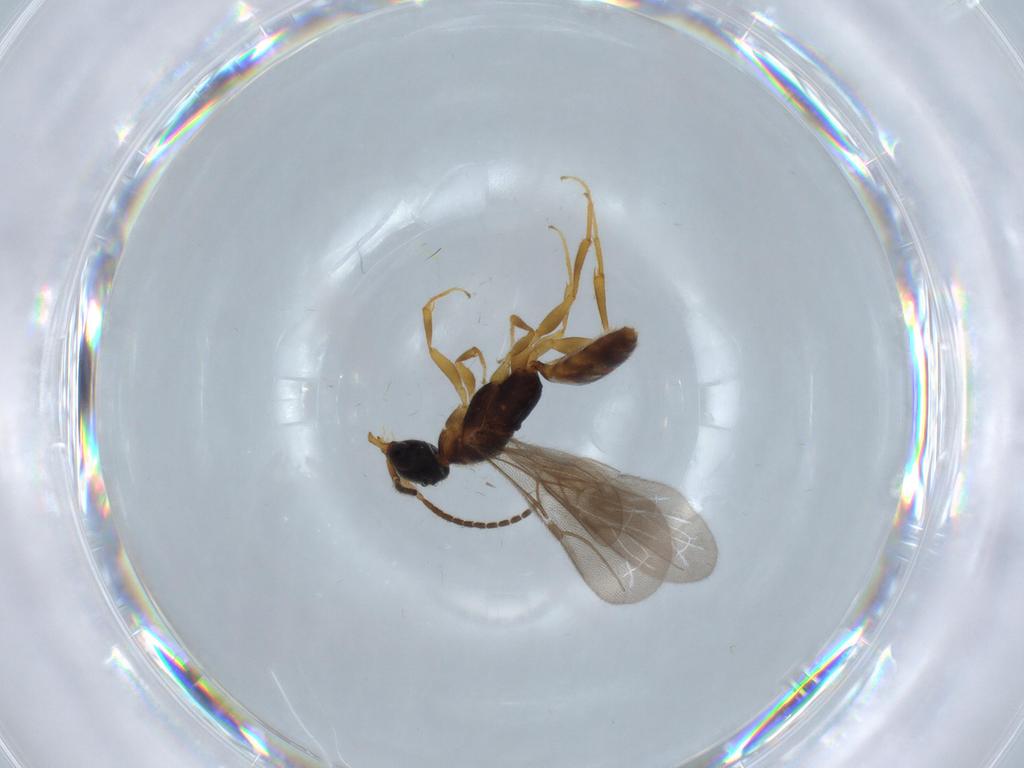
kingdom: Animalia
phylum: Arthropoda
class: Insecta
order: Hymenoptera
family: Bethylidae
